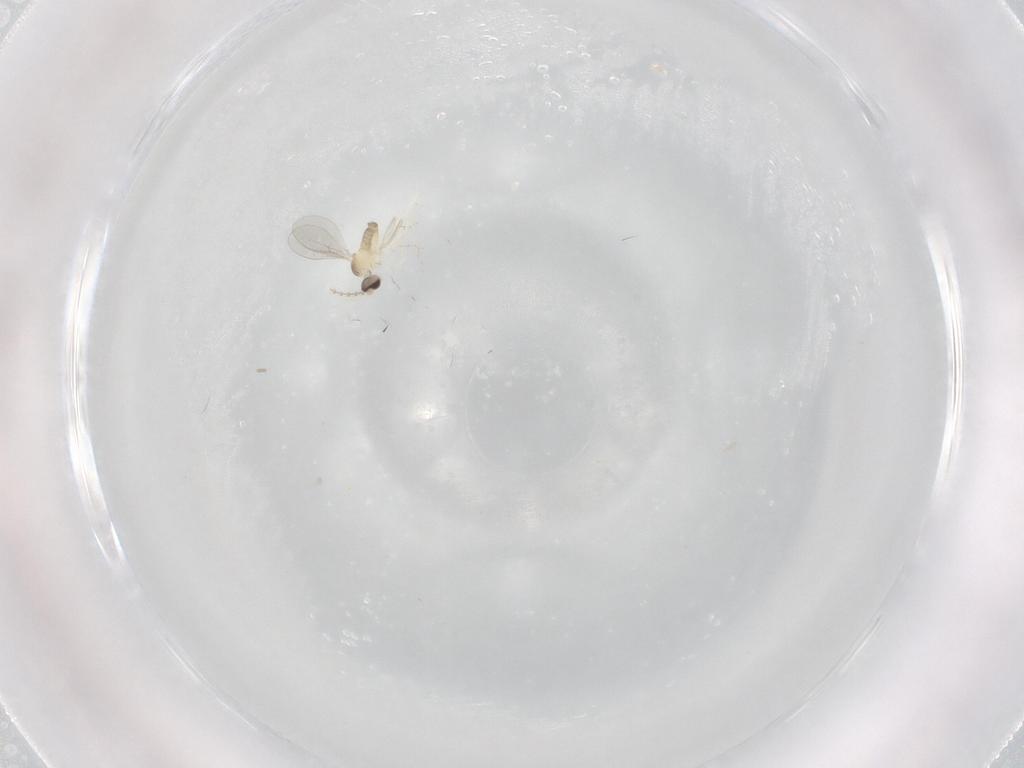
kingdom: Animalia
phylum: Arthropoda
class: Insecta
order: Diptera
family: Cecidomyiidae
